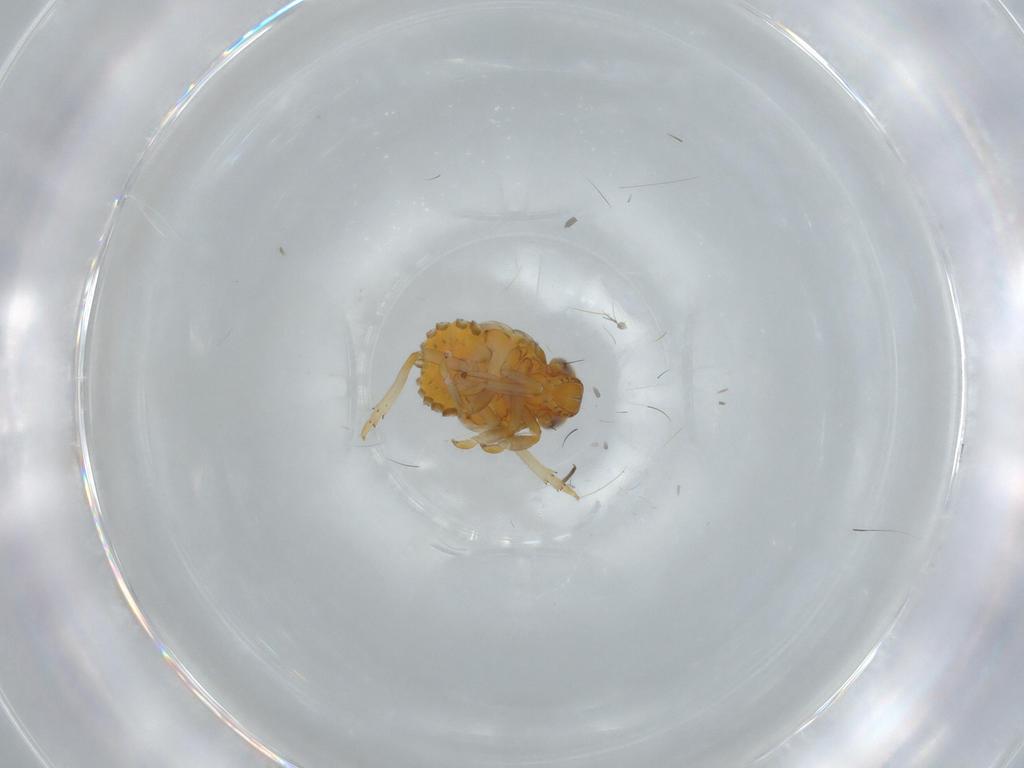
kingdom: Animalia
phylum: Arthropoda
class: Insecta
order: Hemiptera
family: Issidae
